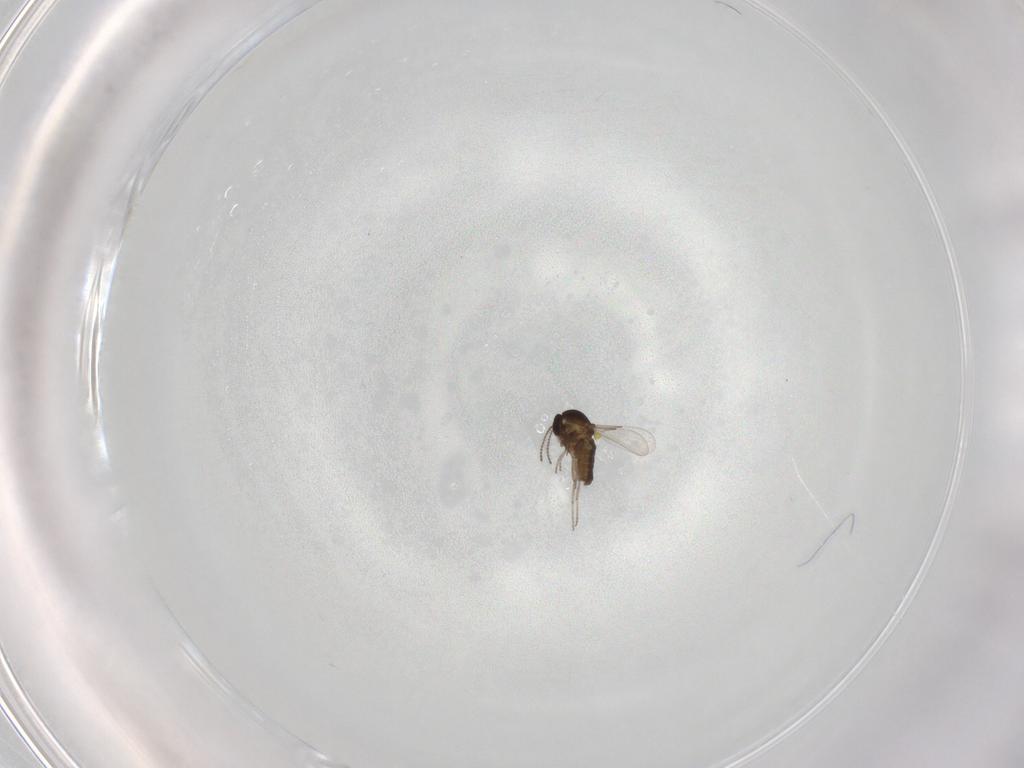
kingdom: Animalia
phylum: Arthropoda
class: Insecta
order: Diptera
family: Ceratopogonidae
